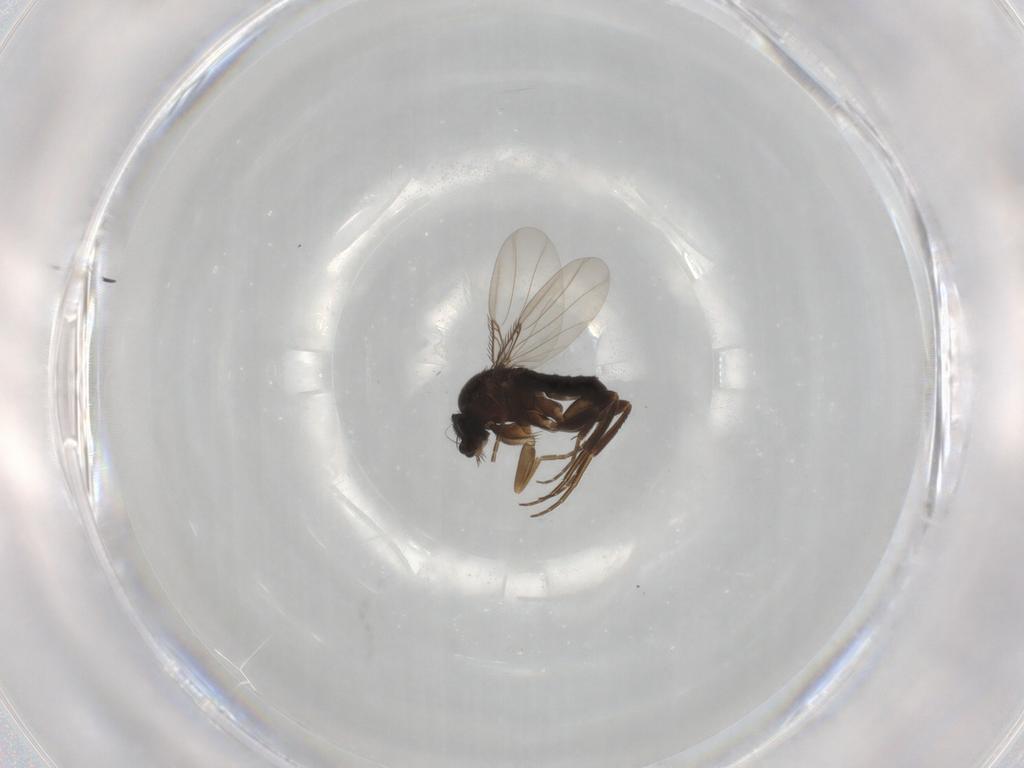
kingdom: Animalia
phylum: Arthropoda
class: Insecta
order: Diptera
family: Phoridae
